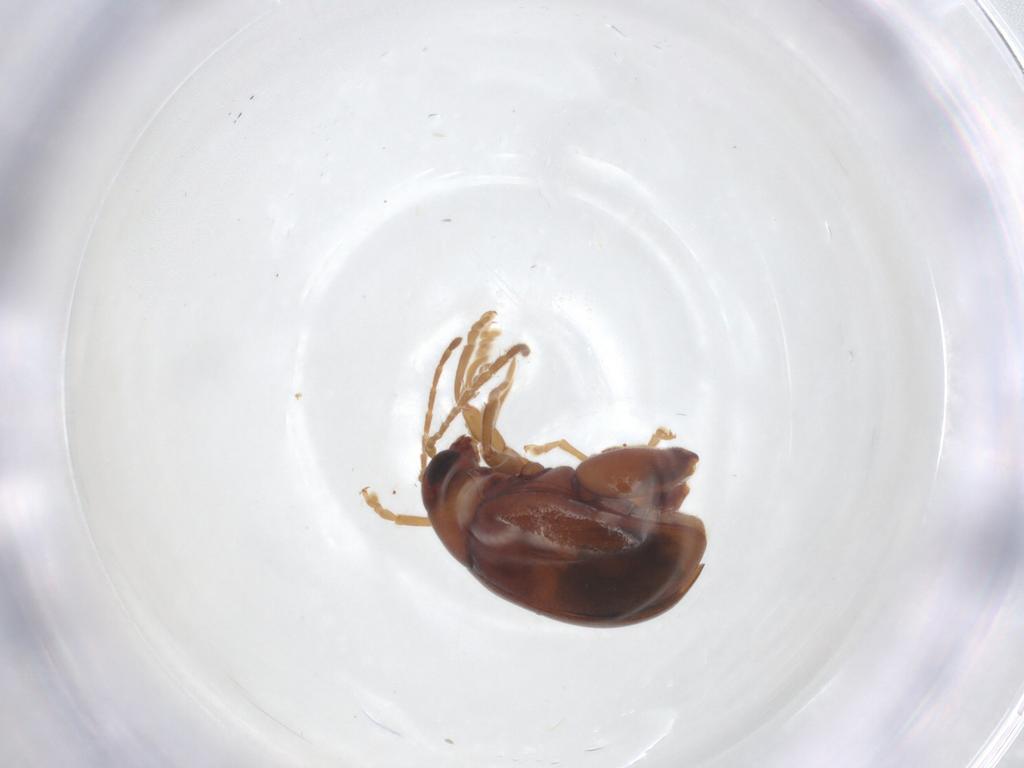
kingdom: Animalia
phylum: Arthropoda
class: Insecta
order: Coleoptera
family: Chrysomelidae
